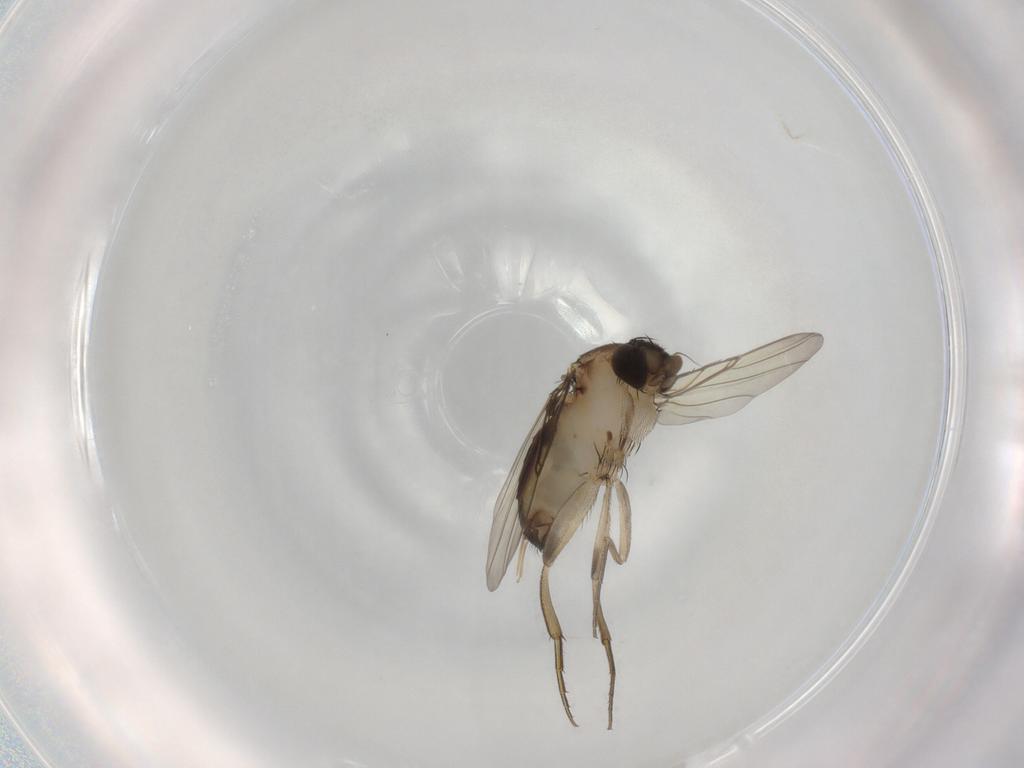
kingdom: Animalia
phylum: Arthropoda
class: Insecta
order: Diptera
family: Phoridae
